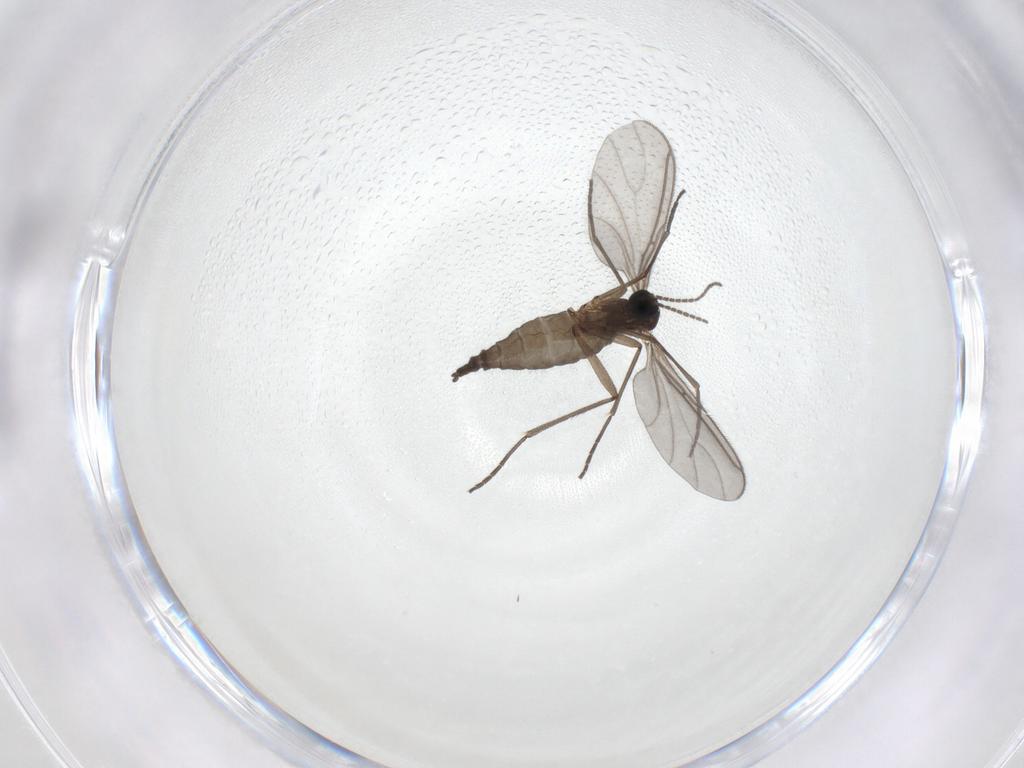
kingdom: Animalia
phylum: Arthropoda
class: Insecta
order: Diptera
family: Sciaridae
